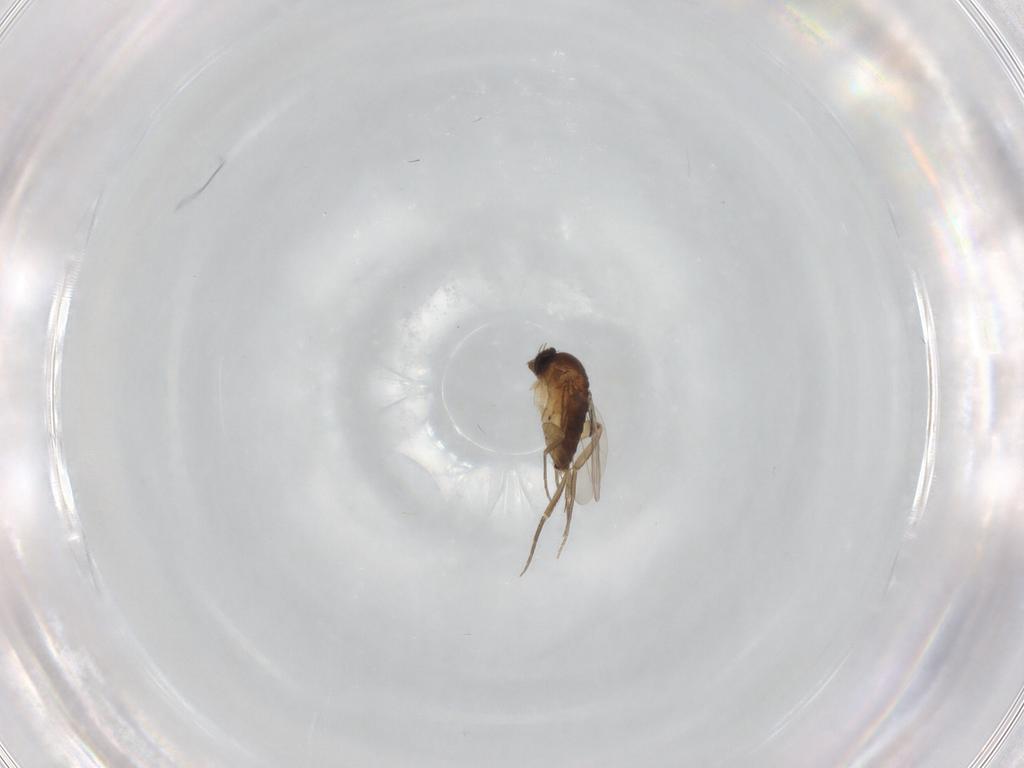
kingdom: Animalia
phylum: Arthropoda
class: Insecta
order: Diptera
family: Phoridae
